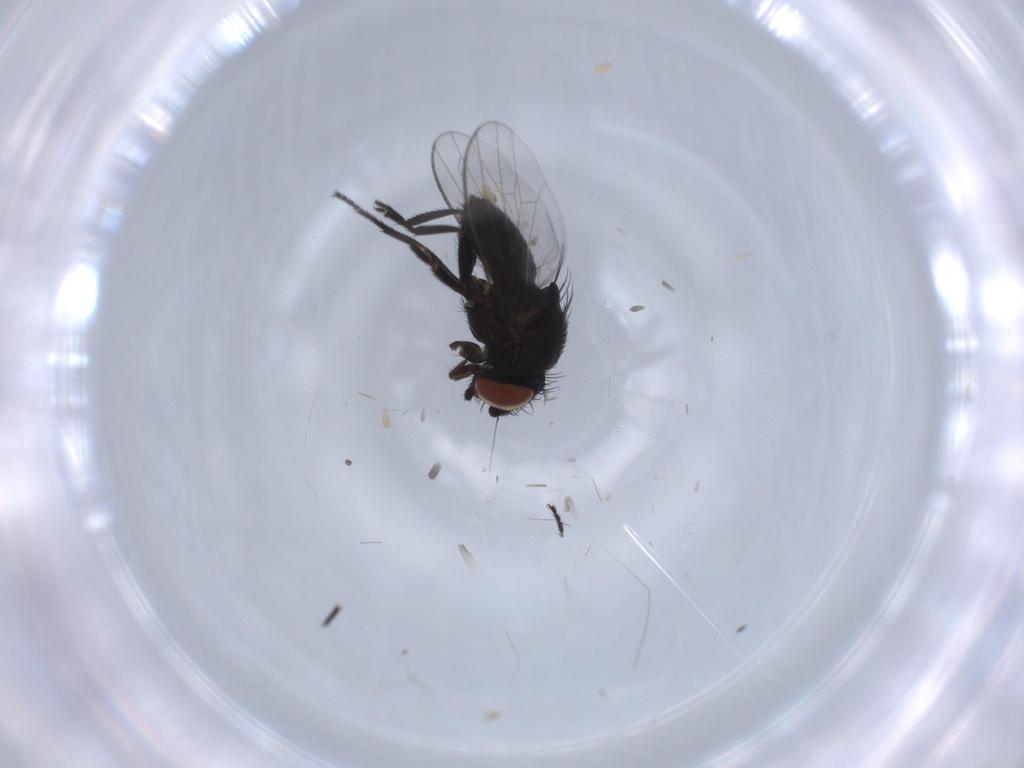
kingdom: Animalia
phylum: Arthropoda
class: Insecta
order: Diptera
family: Milichiidae
